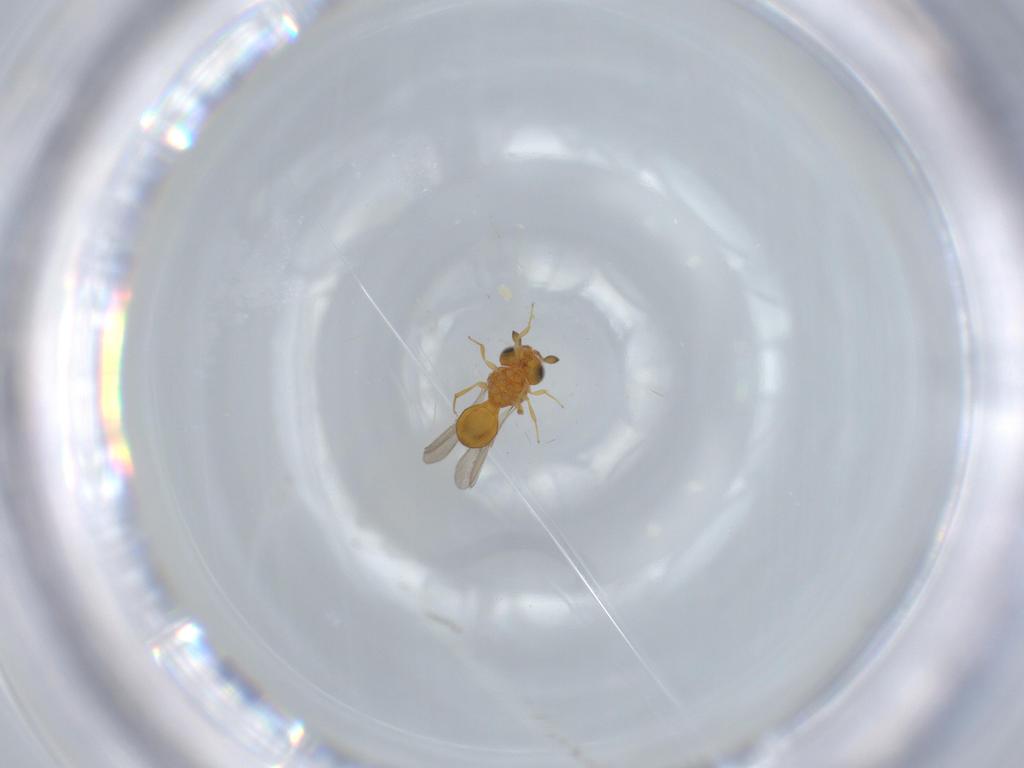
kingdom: Animalia
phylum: Arthropoda
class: Insecta
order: Hymenoptera
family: Scelionidae
